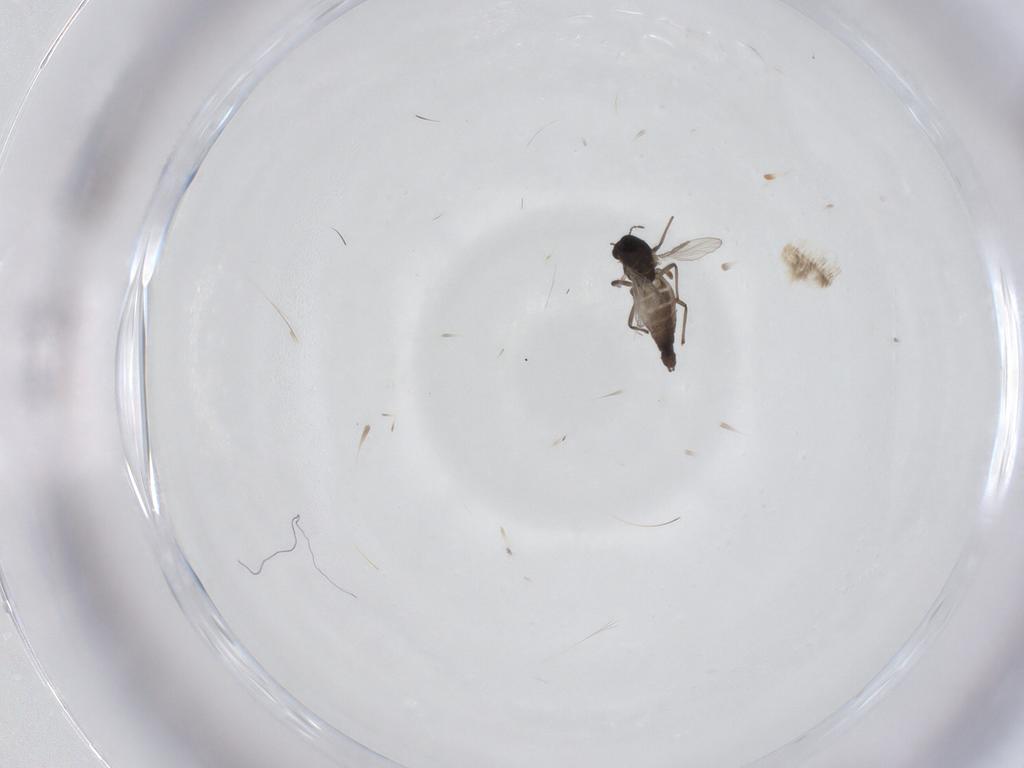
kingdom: Animalia
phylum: Arthropoda
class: Insecta
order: Diptera
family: Chironomidae
